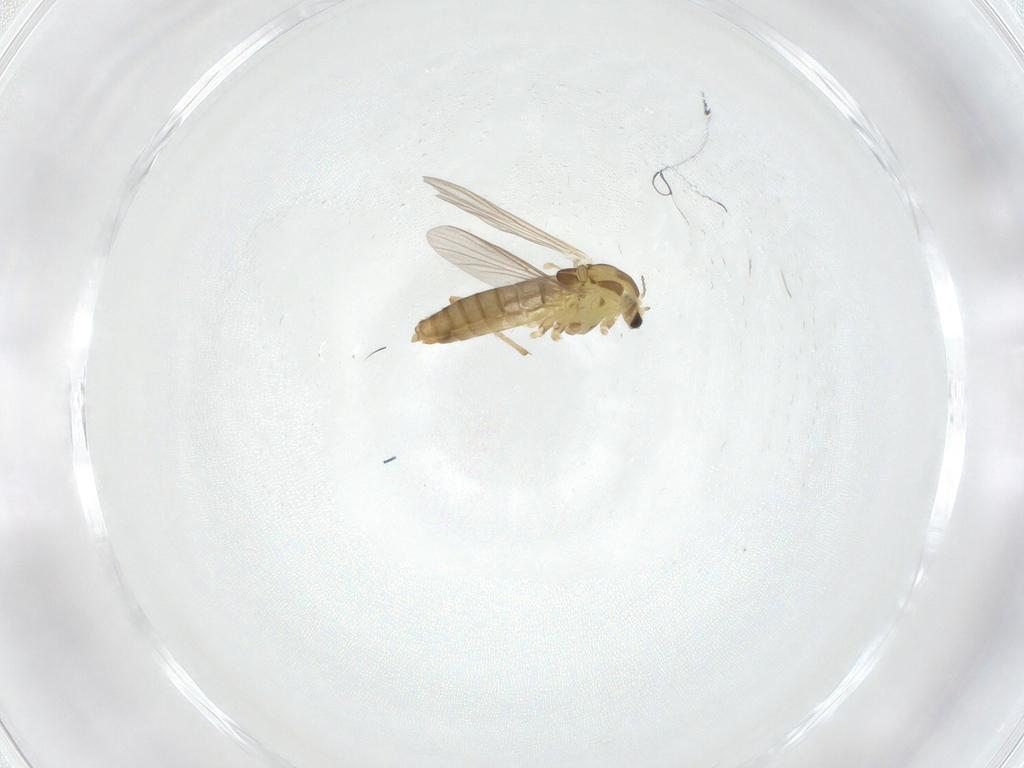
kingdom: Animalia
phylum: Arthropoda
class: Insecta
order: Diptera
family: Chironomidae
